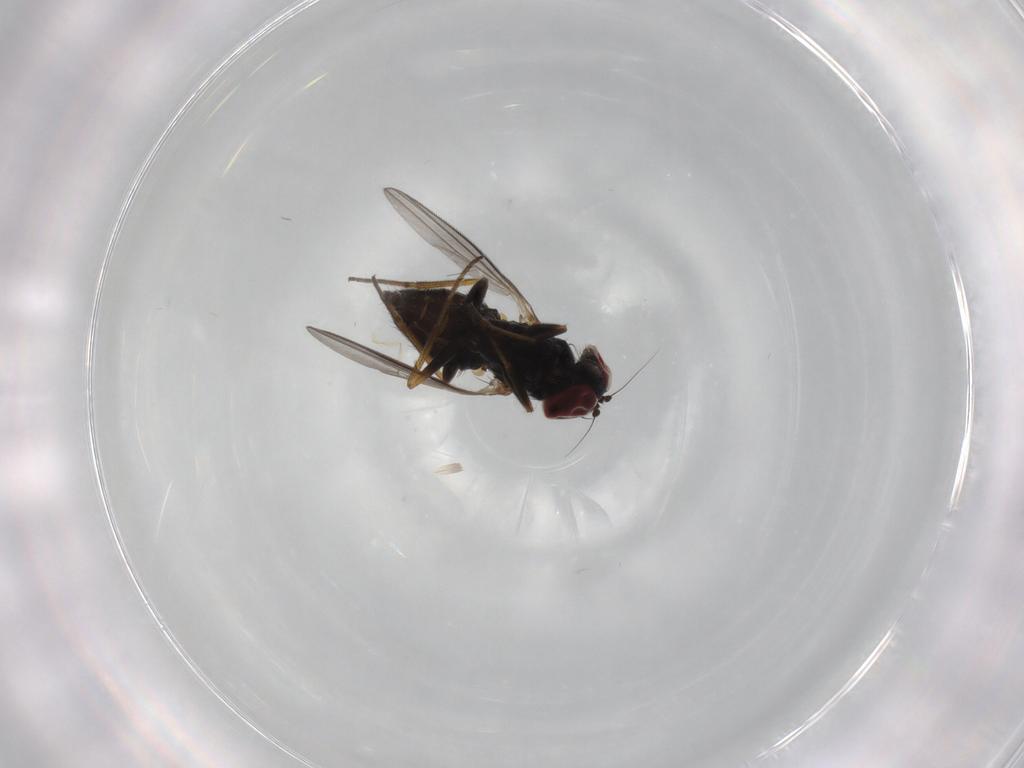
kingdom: Animalia
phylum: Arthropoda
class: Insecta
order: Diptera
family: Dolichopodidae
